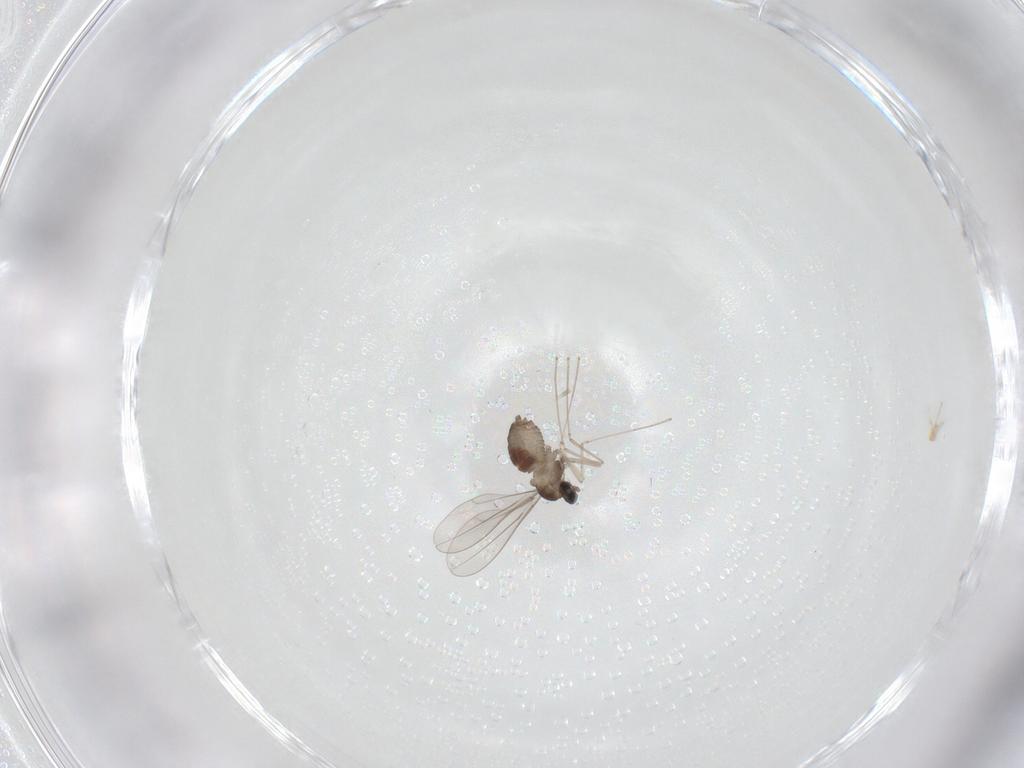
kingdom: Animalia
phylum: Arthropoda
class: Insecta
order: Diptera
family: Cecidomyiidae
